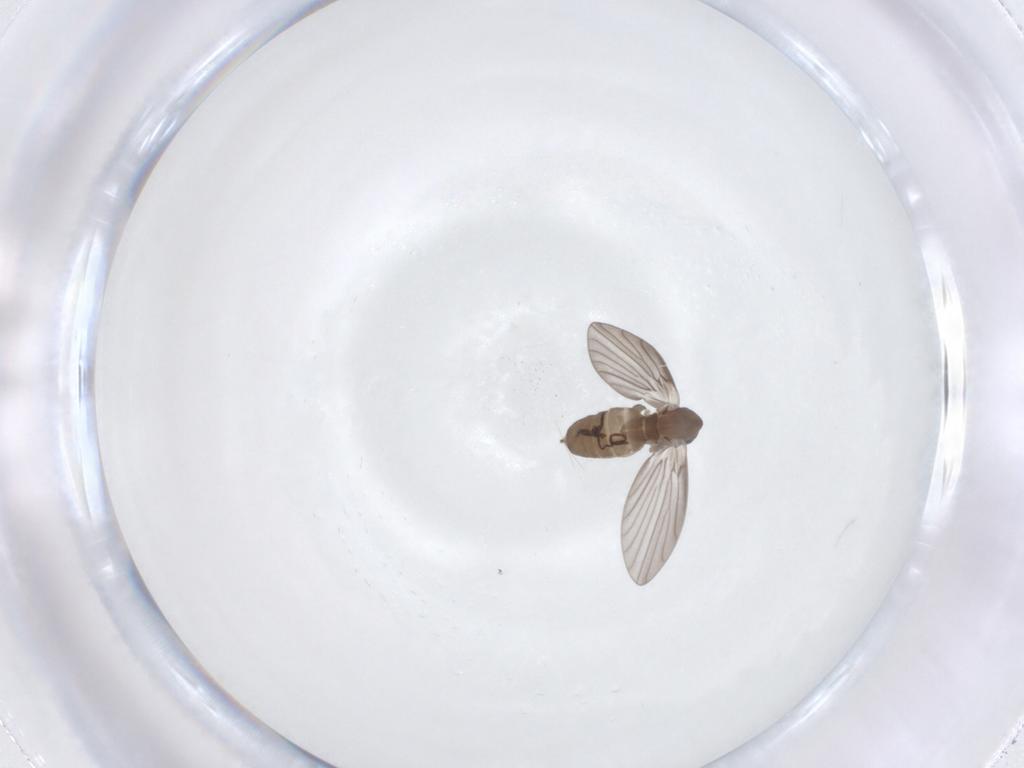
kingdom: Animalia
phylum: Arthropoda
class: Insecta
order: Diptera
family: Psychodidae
